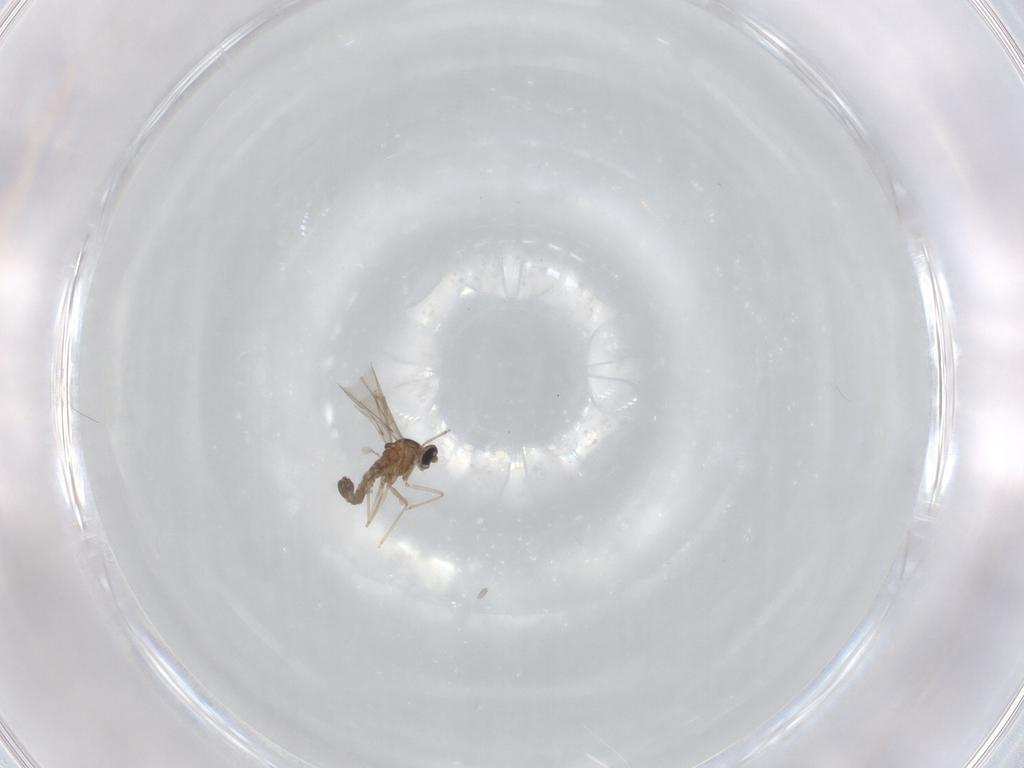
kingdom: Animalia
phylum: Arthropoda
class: Insecta
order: Diptera
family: Cecidomyiidae
